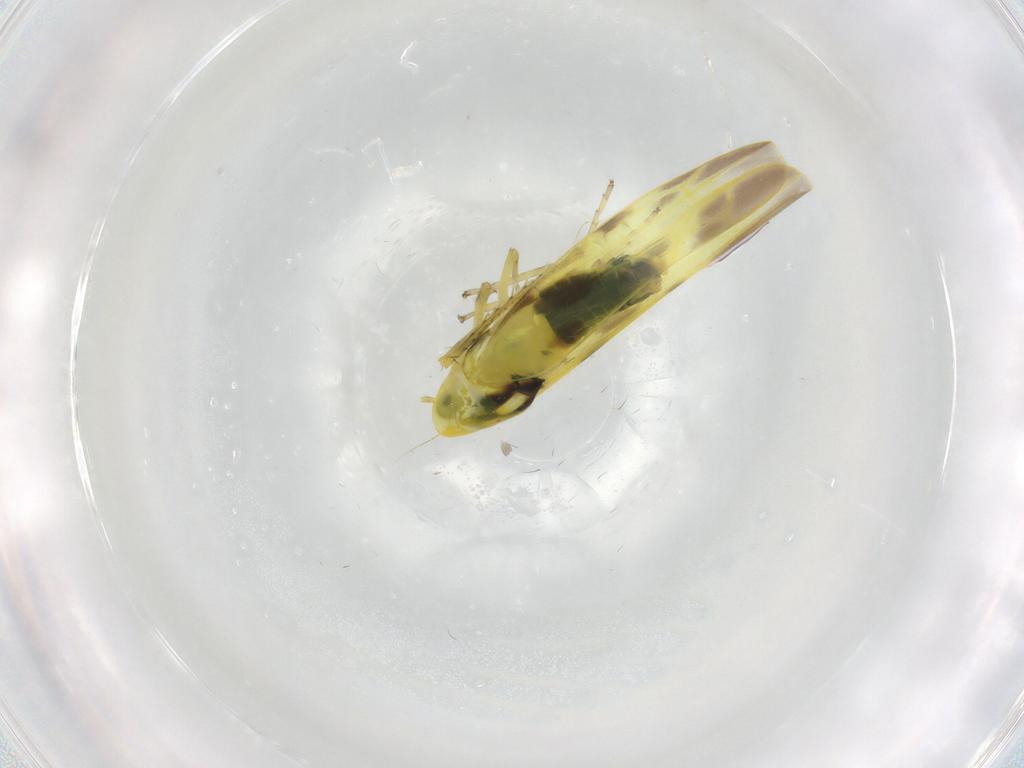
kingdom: Animalia
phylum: Arthropoda
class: Insecta
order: Hemiptera
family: Cicadellidae
